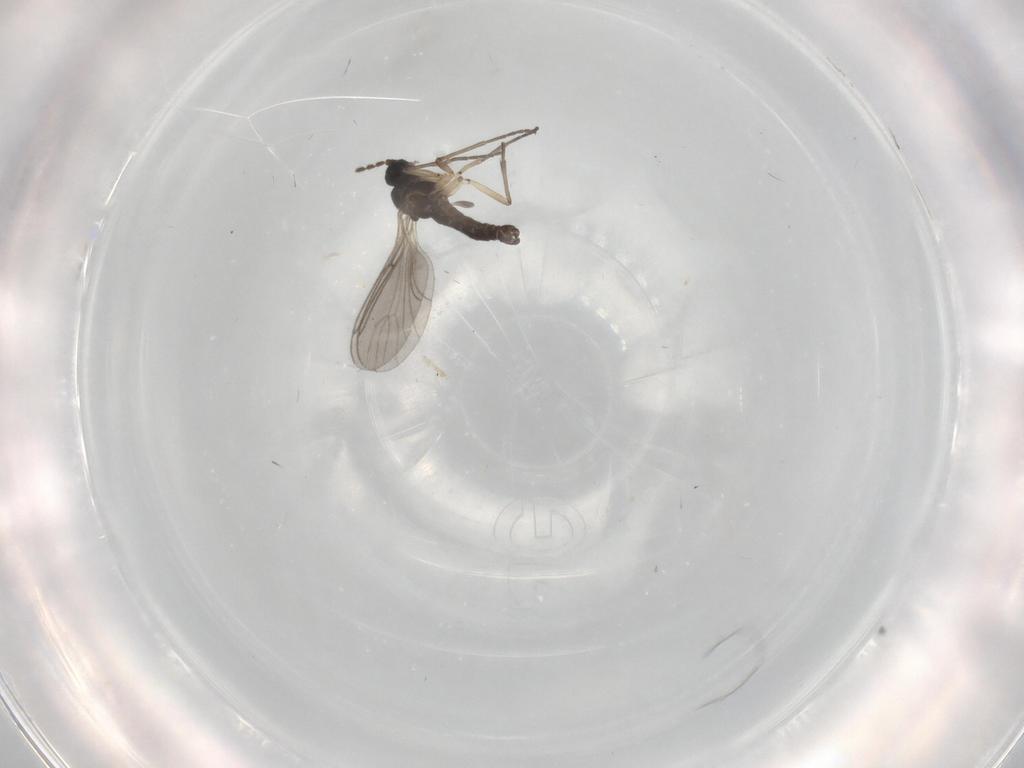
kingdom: Animalia
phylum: Arthropoda
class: Insecta
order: Diptera
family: Sciaridae
